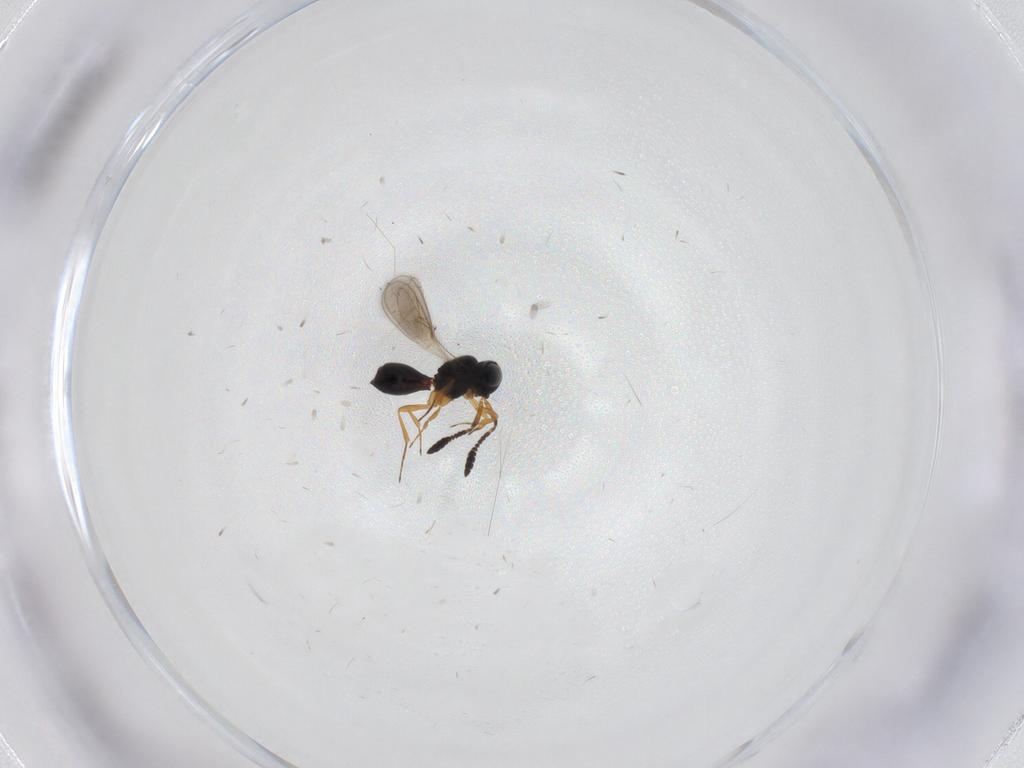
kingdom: Animalia
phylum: Arthropoda
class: Insecta
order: Hymenoptera
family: Scelionidae
